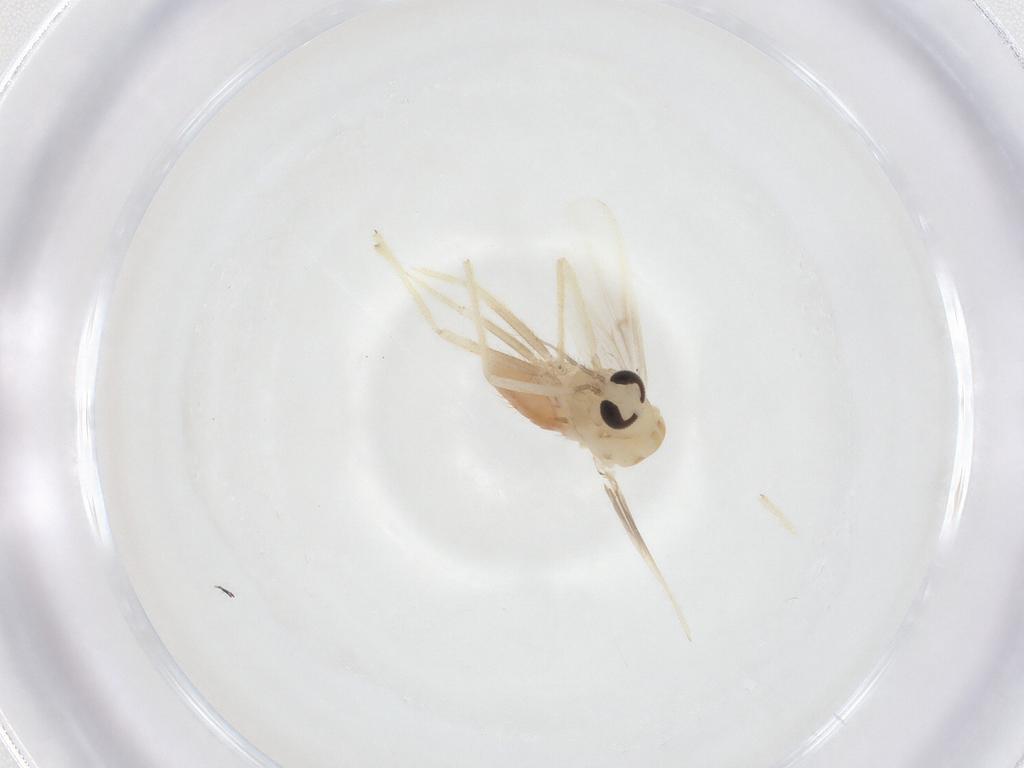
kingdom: Animalia
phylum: Arthropoda
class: Insecta
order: Diptera
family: Chironomidae
